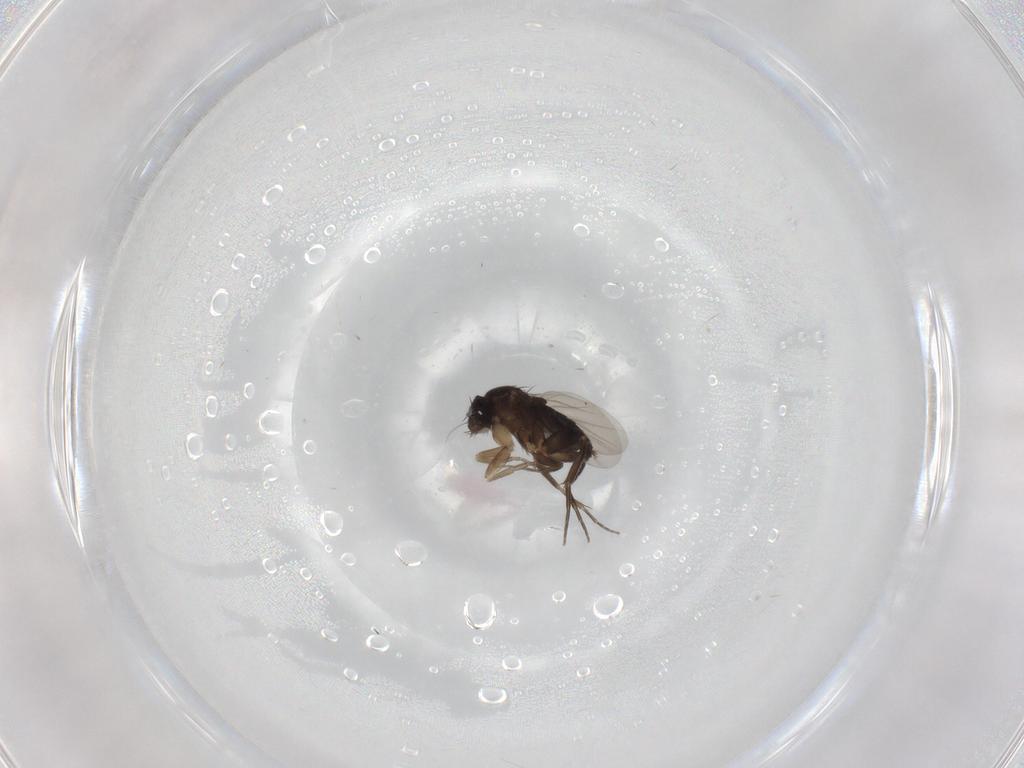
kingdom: Animalia
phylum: Arthropoda
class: Insecta
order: Diptera
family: Phoridae
